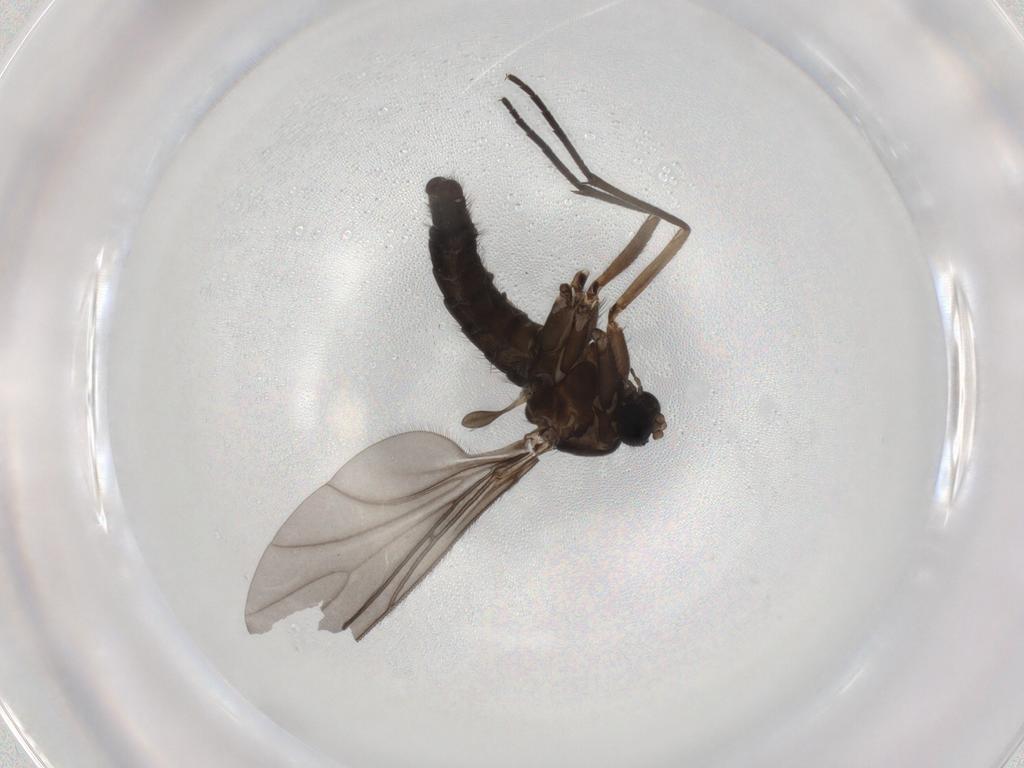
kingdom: Animalia
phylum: Arthropoda
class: Insecta
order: Diptera
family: Sciaridae
